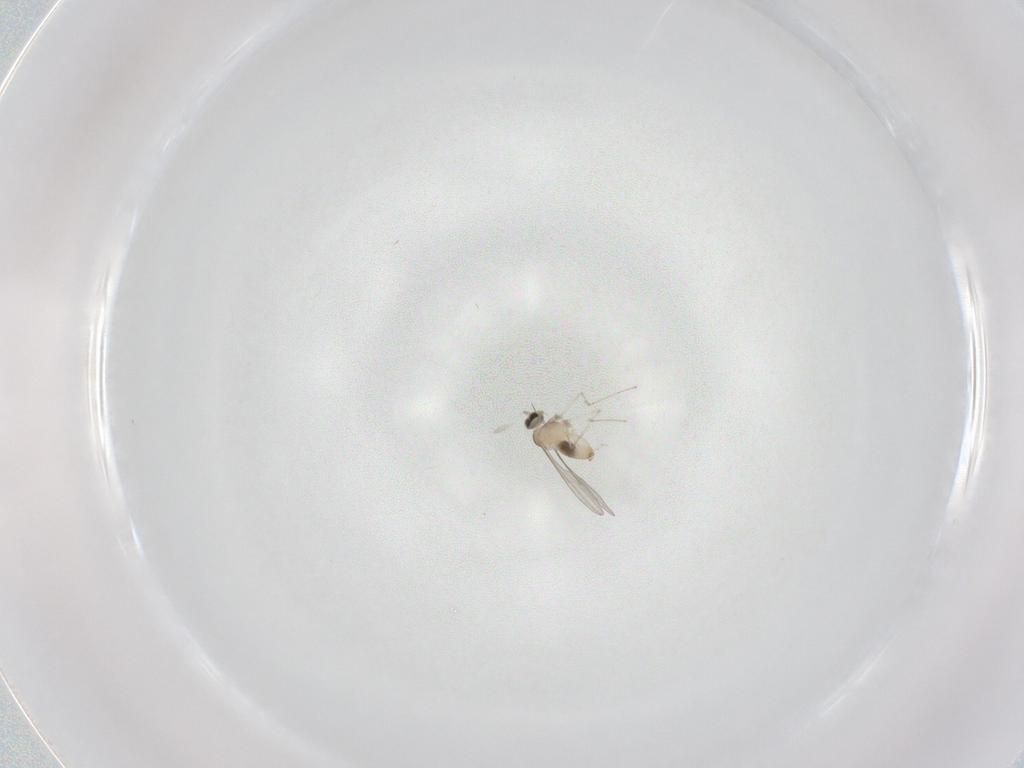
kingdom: Animalia
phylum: Arthropoda
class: Insecta
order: Diptera
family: Cecidomyiidae
